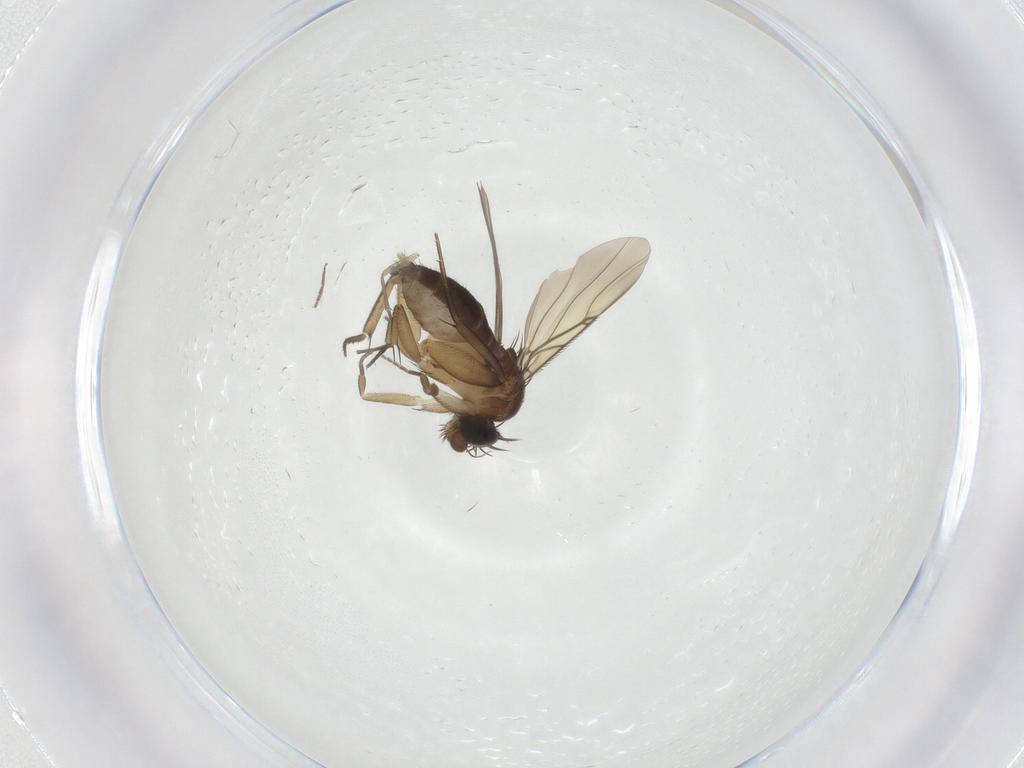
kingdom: Animalia
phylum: Arthropoda
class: Insecta
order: Diptera
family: Phoridae
